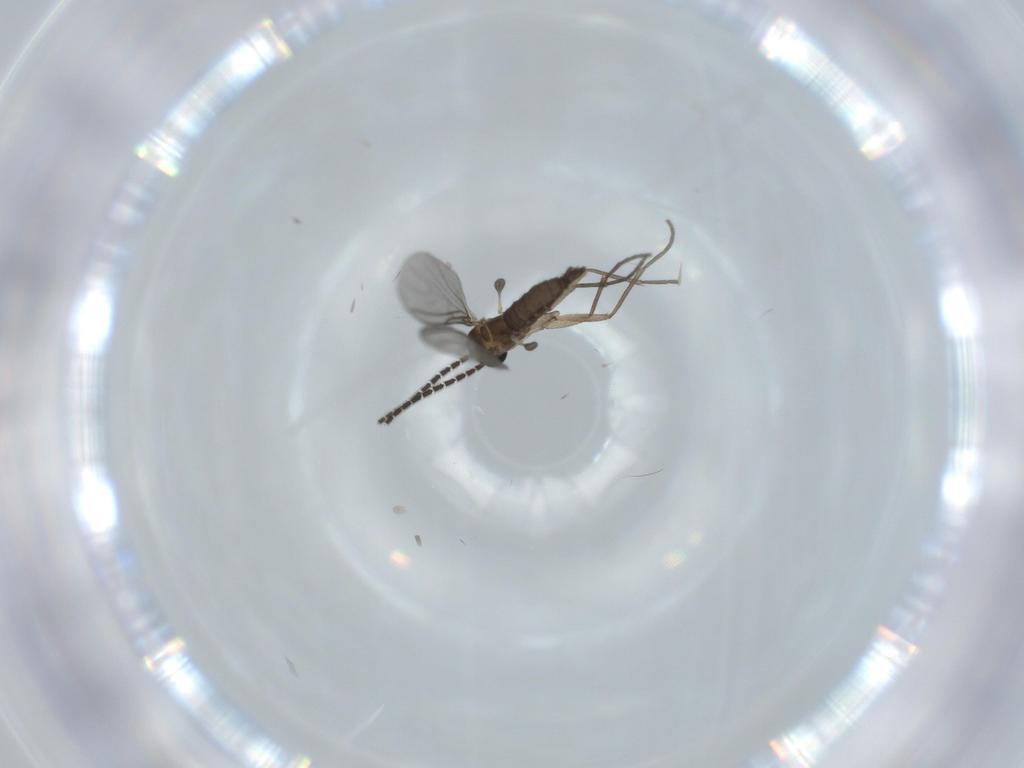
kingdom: Animalia
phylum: Arthropoda
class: Insecta
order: Diptera
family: Sciaridae
